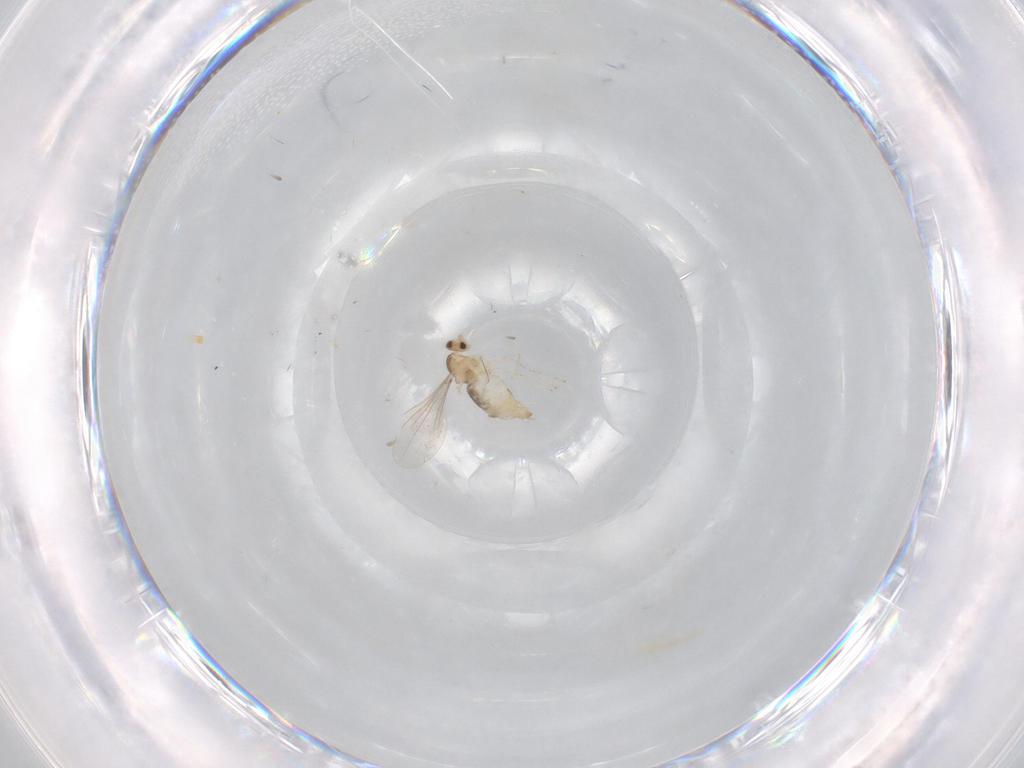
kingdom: Animalia
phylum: Arthropoda
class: Insecta
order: Diptera
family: Cecidomyiidae
